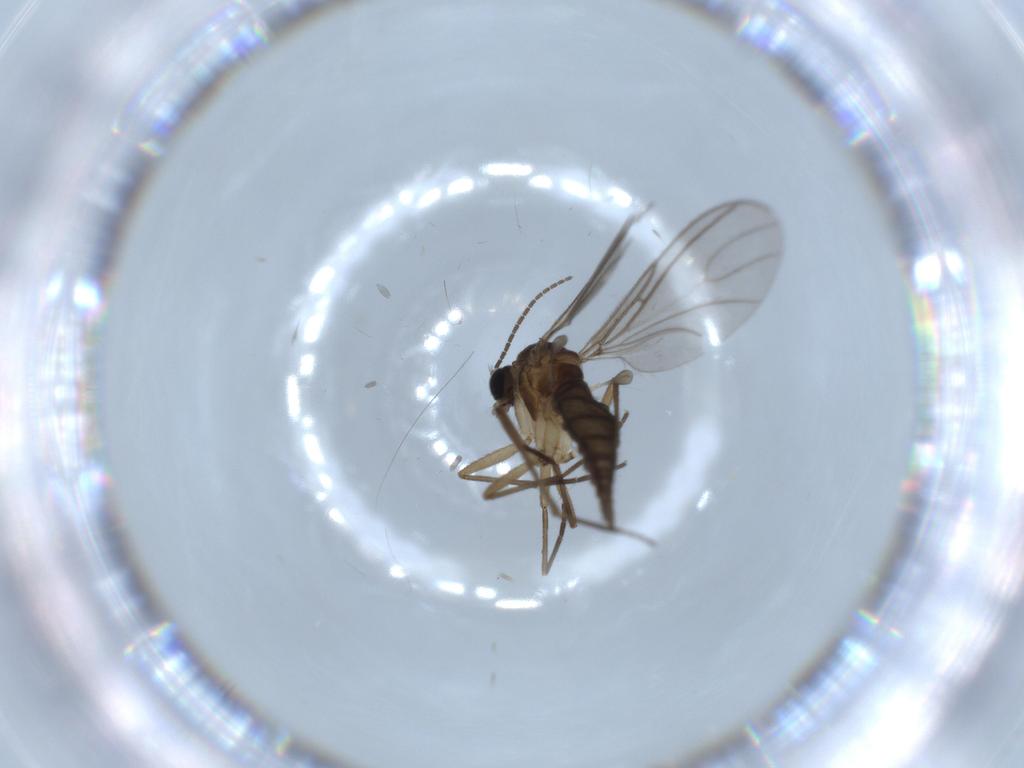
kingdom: Animalia
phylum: Arthropoda
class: Insecta
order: Diptera
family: Sciaridae
